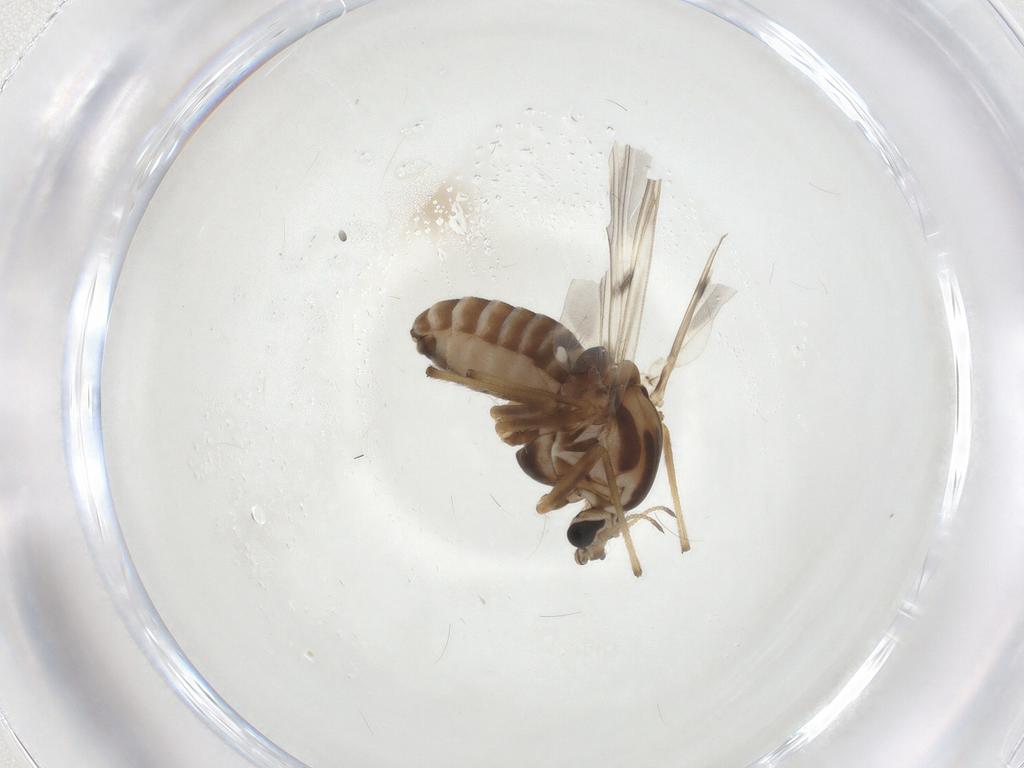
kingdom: Animalia
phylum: Arthropoda
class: Insecta
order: Diptera
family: Chironomidae
